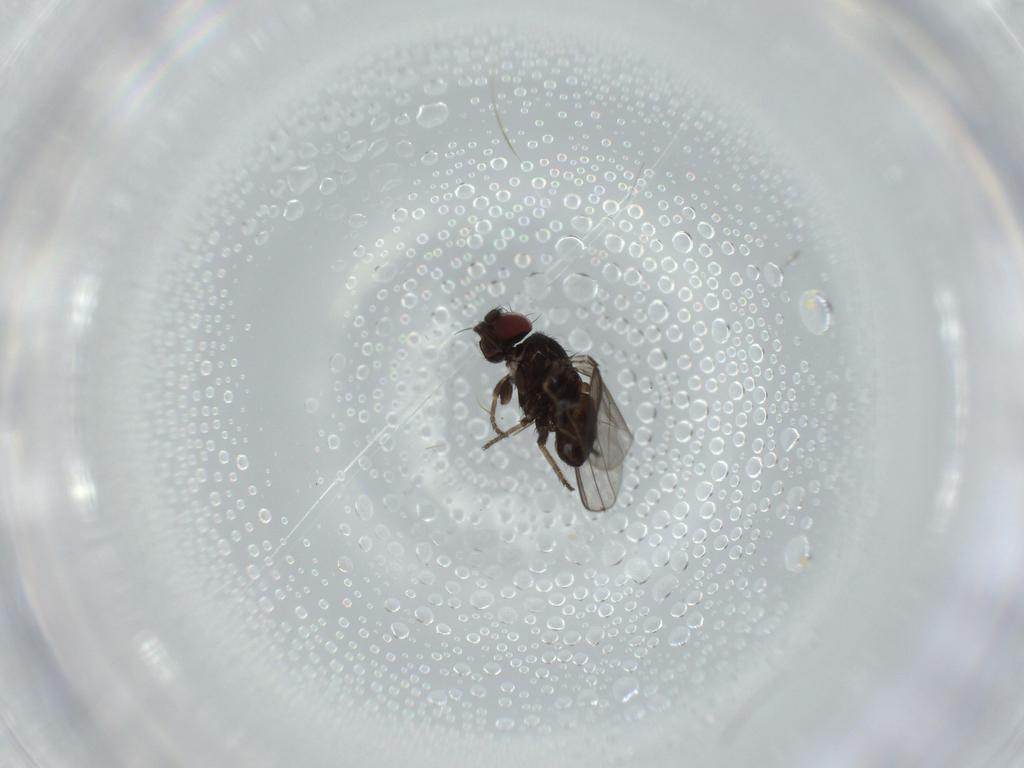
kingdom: Animalia
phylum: Arthropoda
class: Insecta
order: Diptera
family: Milichiidae
